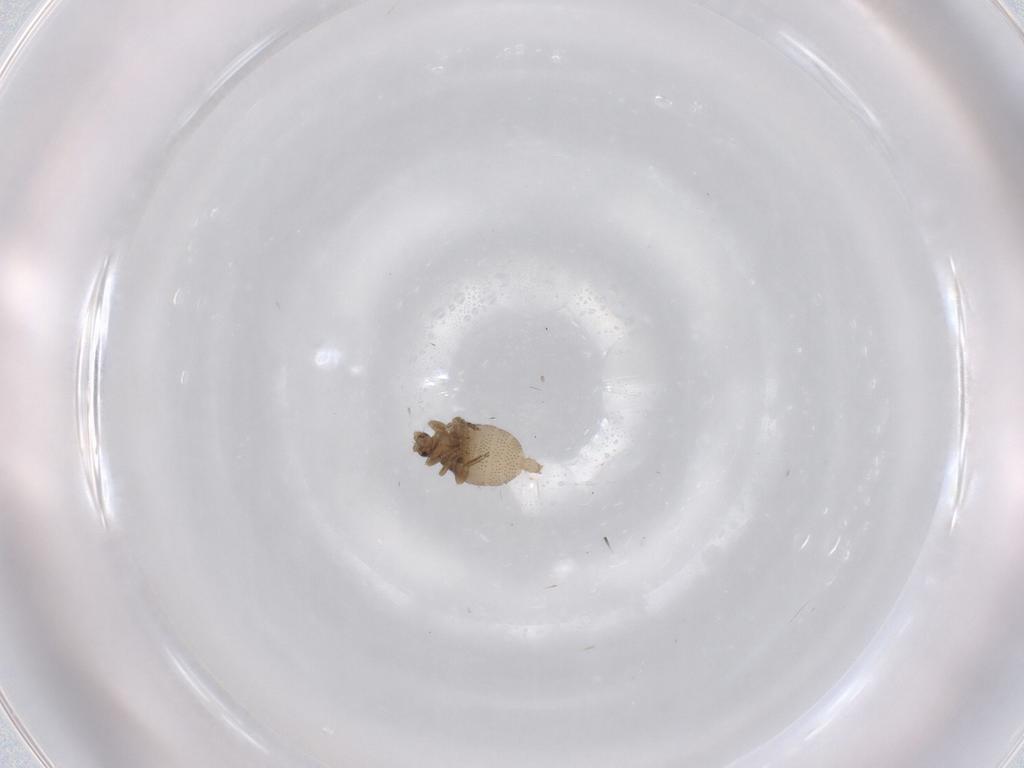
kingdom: Animalia
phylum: Arthropoda
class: Insecta
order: Diptera
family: Phoridae
